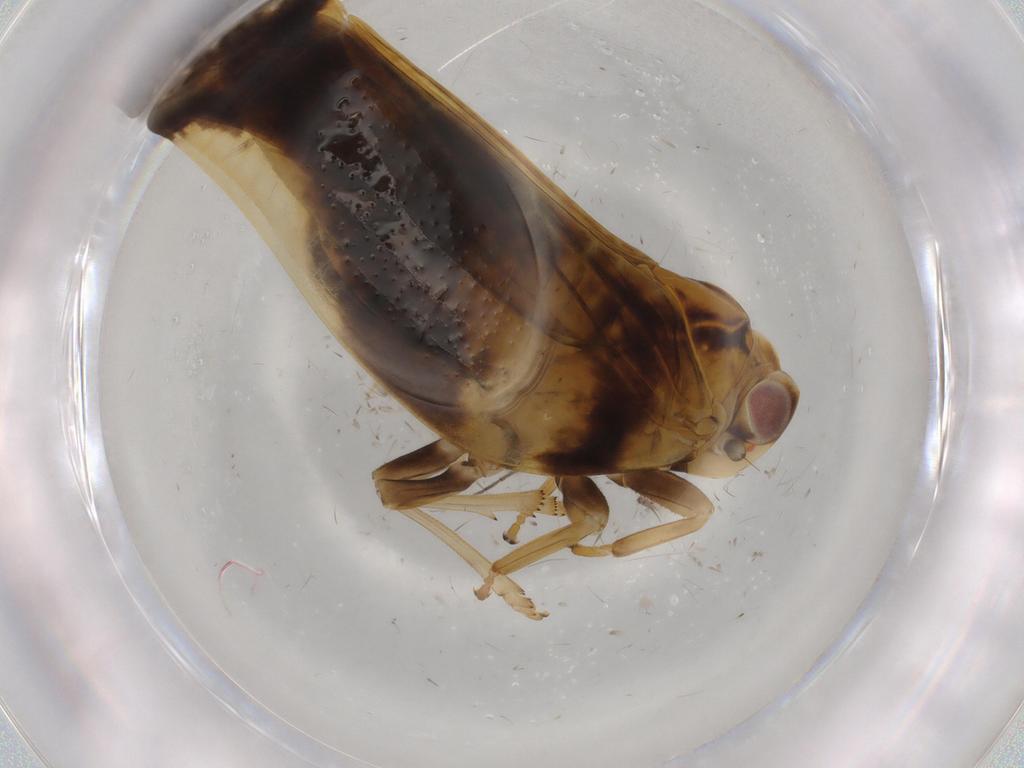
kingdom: Animalia
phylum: Arthropoda
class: Insecta
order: Hemiptera
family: Nogodinidae
